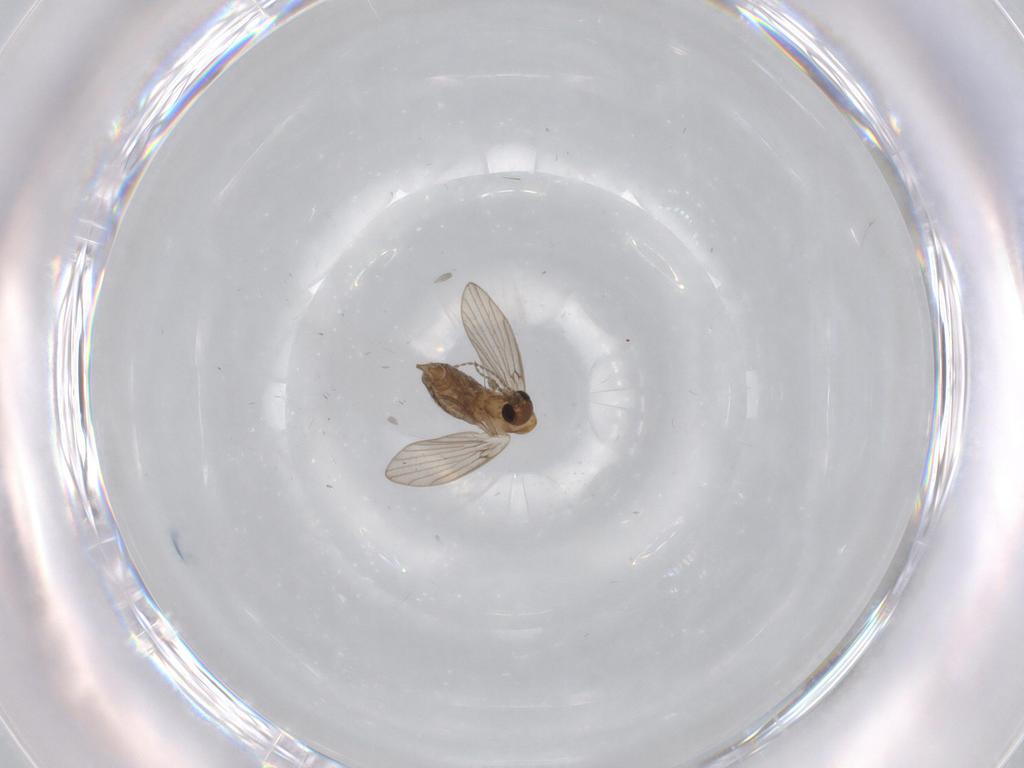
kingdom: Animalia
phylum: Arthropoda
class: Insecta
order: Diptera
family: Psychodidae
